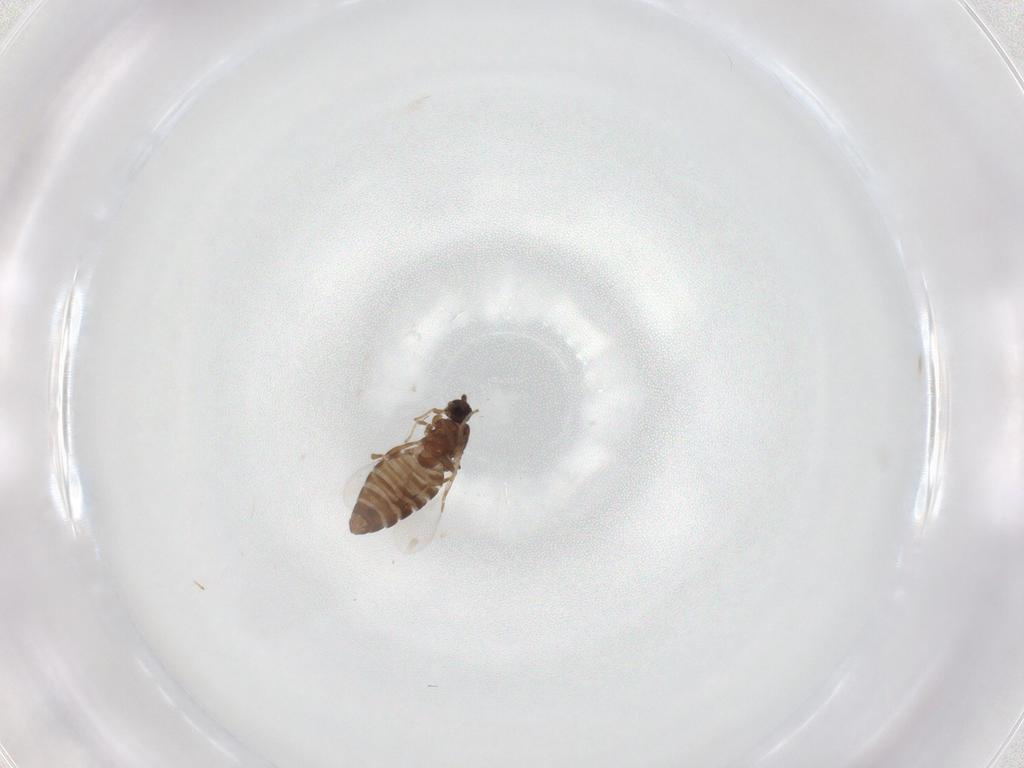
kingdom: Animalia
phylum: Arthropoda
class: Insecta
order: Diptera
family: Scatopsidae
